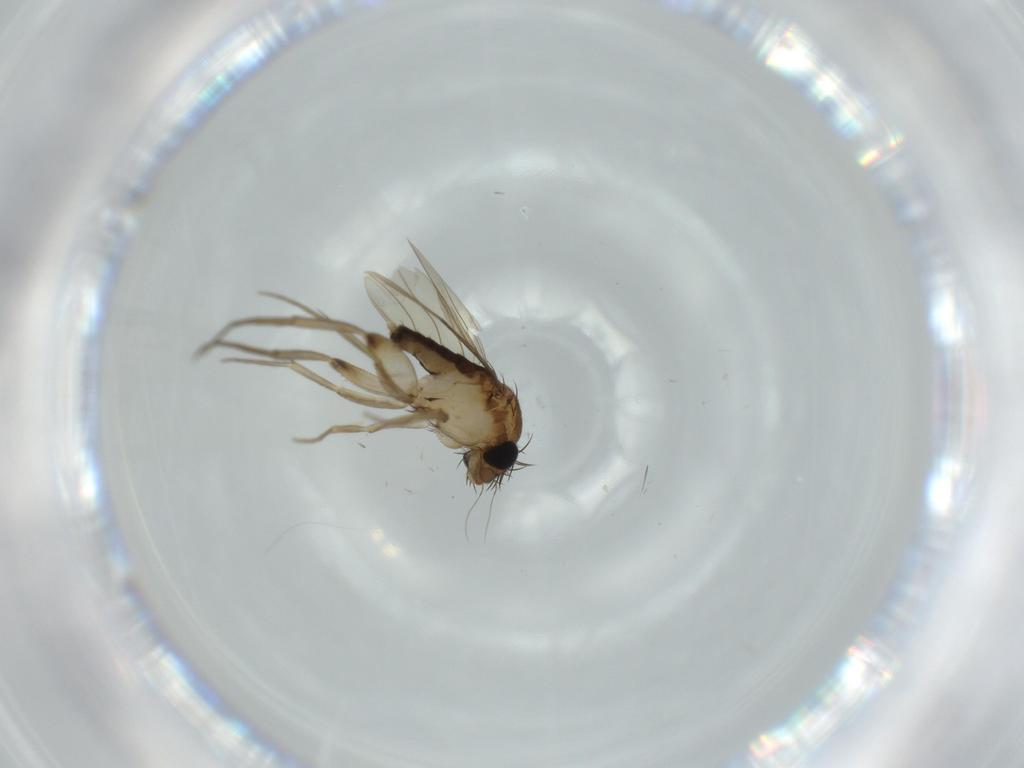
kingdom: Animalia
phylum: Arthropoda
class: Insecta
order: Diptera
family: Phoridae
